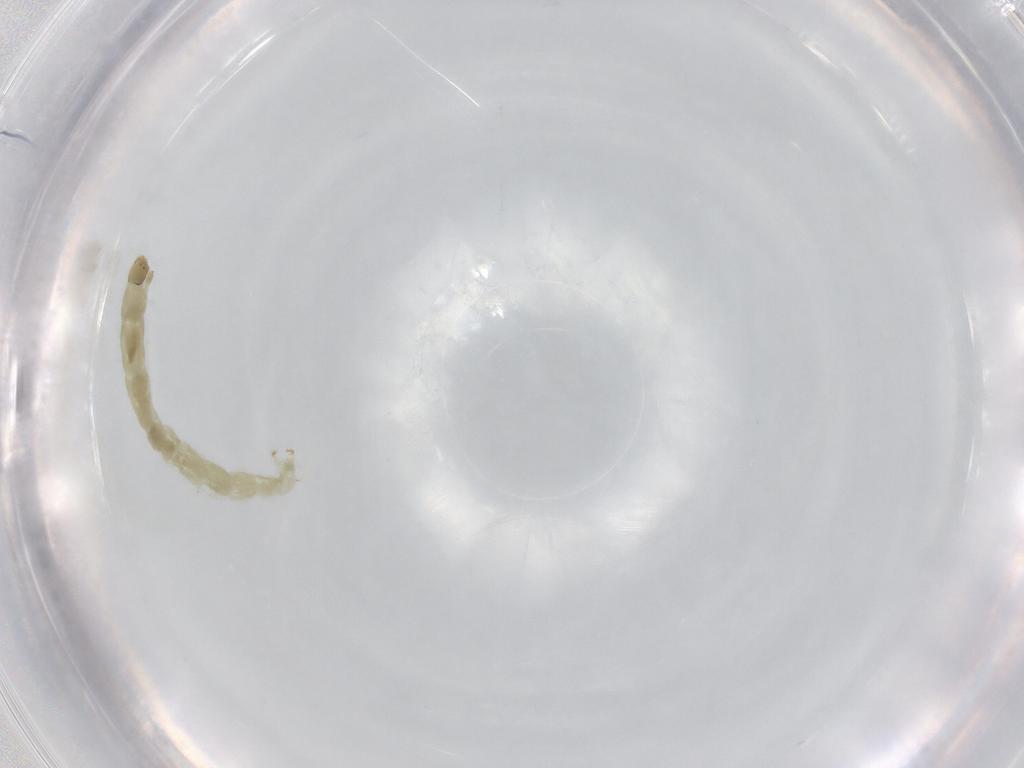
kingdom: Animalia
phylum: Arthropoda
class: Insecta
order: Diptera
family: Chironomidae
